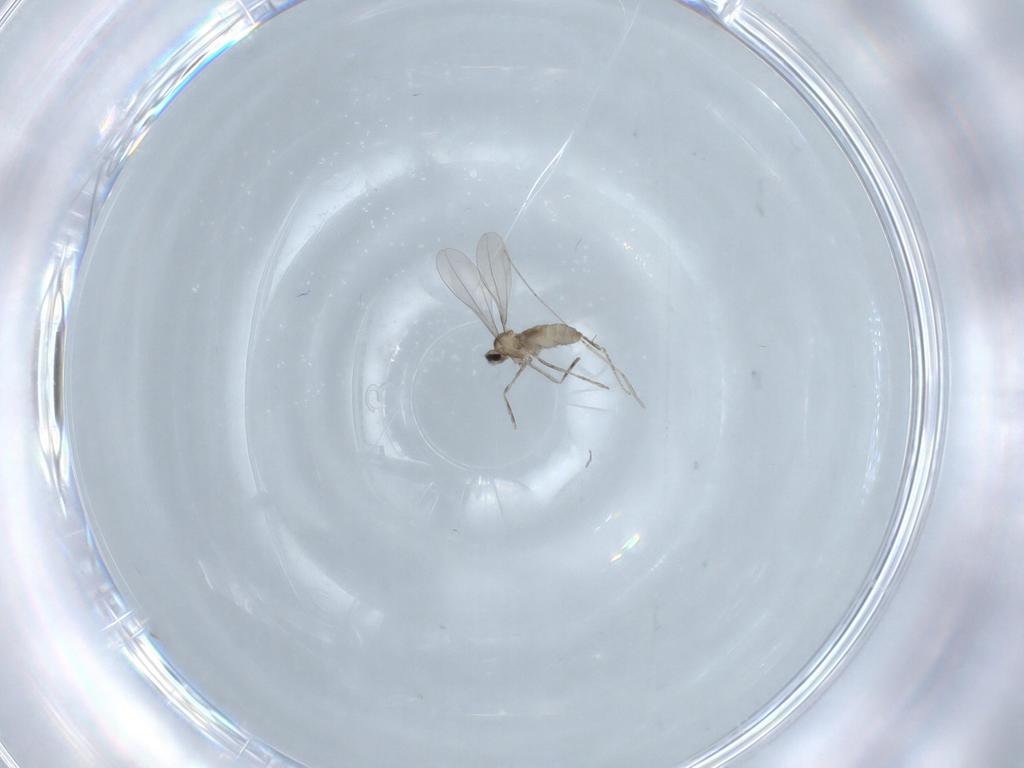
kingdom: Animalia
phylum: Arthropoda
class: Insecta
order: Diptera
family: Cecidomyiidae
